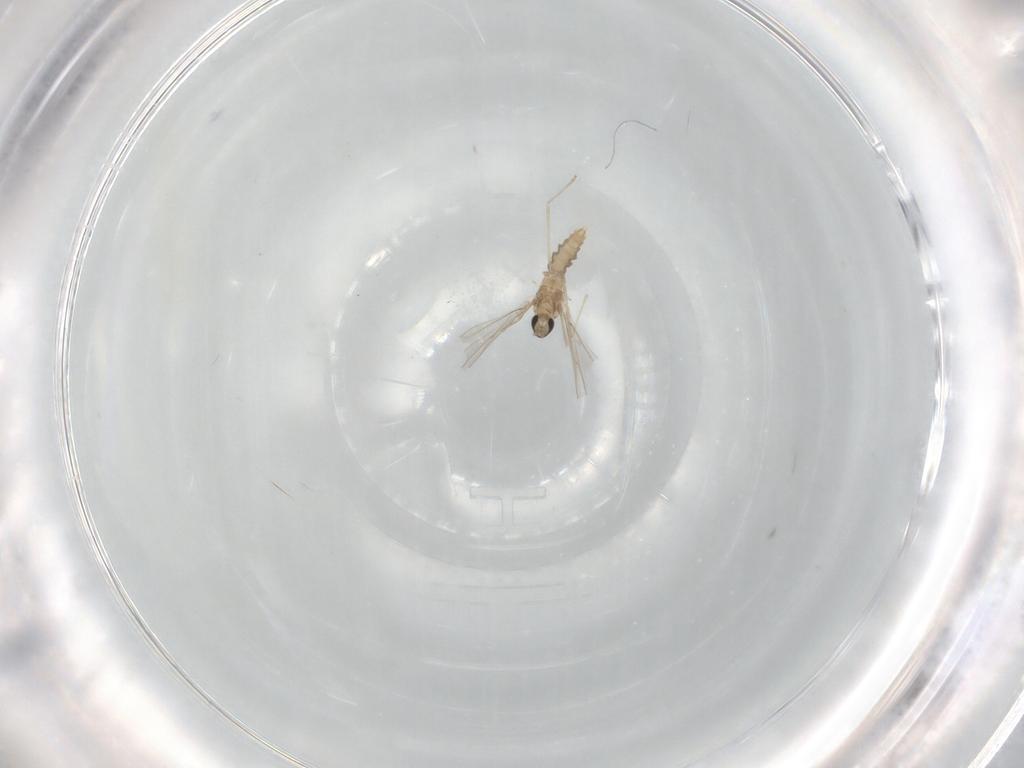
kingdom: Animalia
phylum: Arthropoda
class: Insecta
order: Diptera
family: Cecidomyiidae
